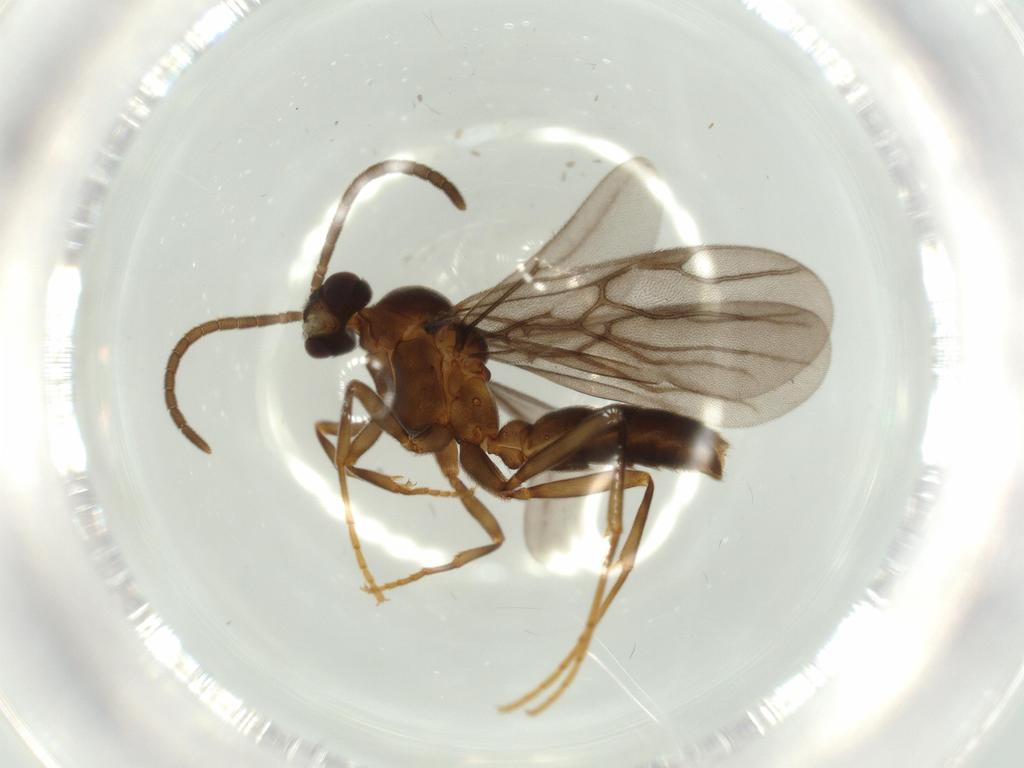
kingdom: Animalia
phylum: Arthropoda
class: Insecta
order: Hymenoptera
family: Formicidae
